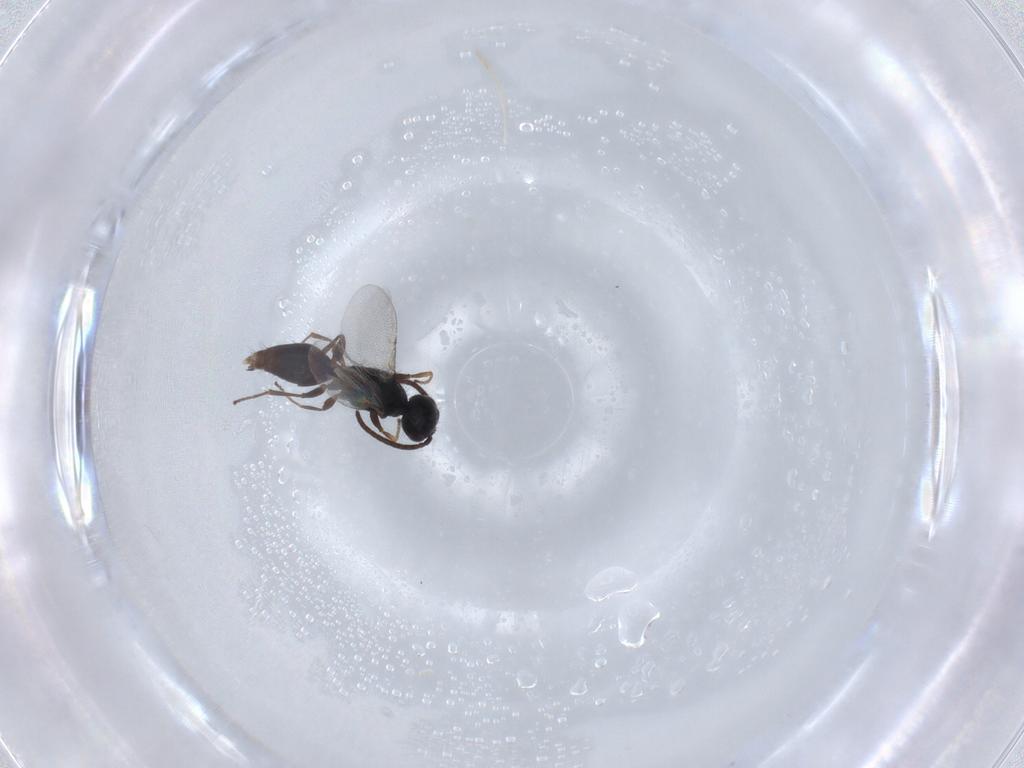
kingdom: Animalia
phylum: Arthropoda
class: Insecta
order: Hymenoptera
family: Bethylidae
